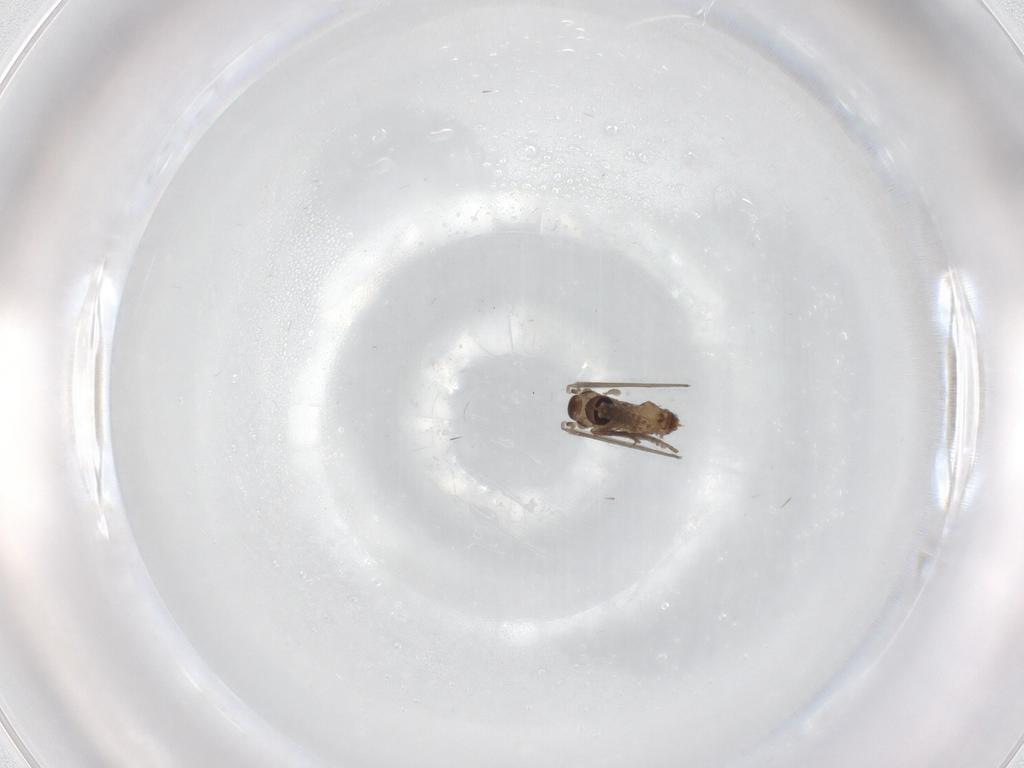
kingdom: Animalia
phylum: Arthropoda
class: Insecta
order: Diptera
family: Psychodidae
